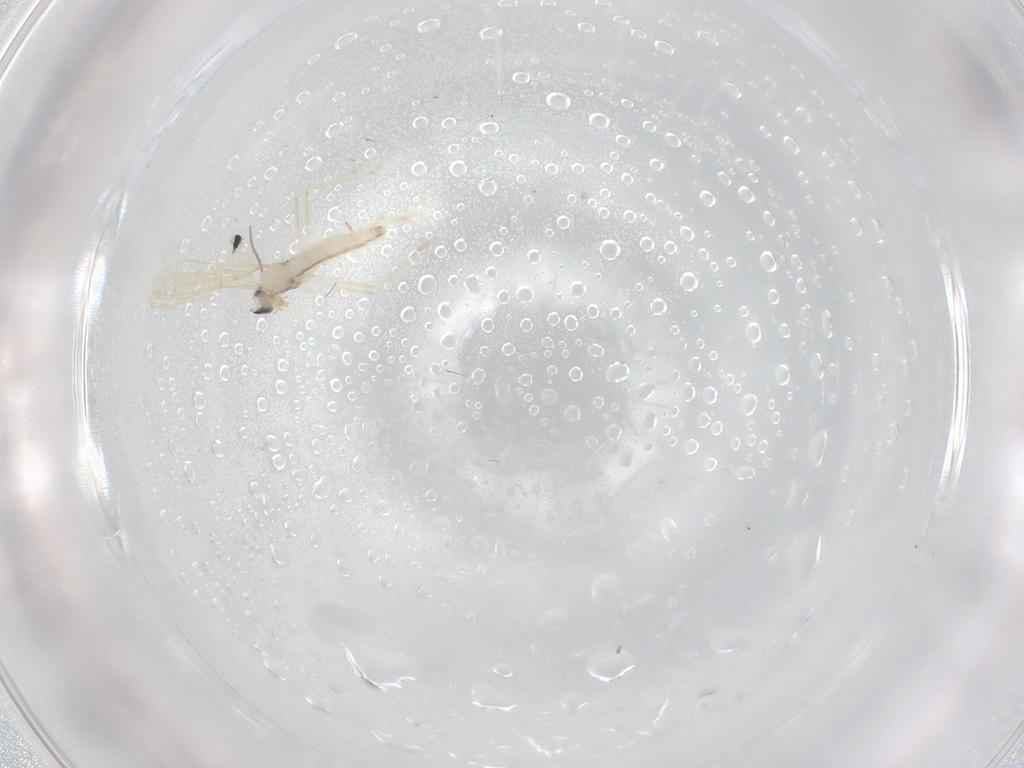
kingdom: Animalia
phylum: Arthropoda
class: Insecta
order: Diptera
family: Cecidomyiidae
